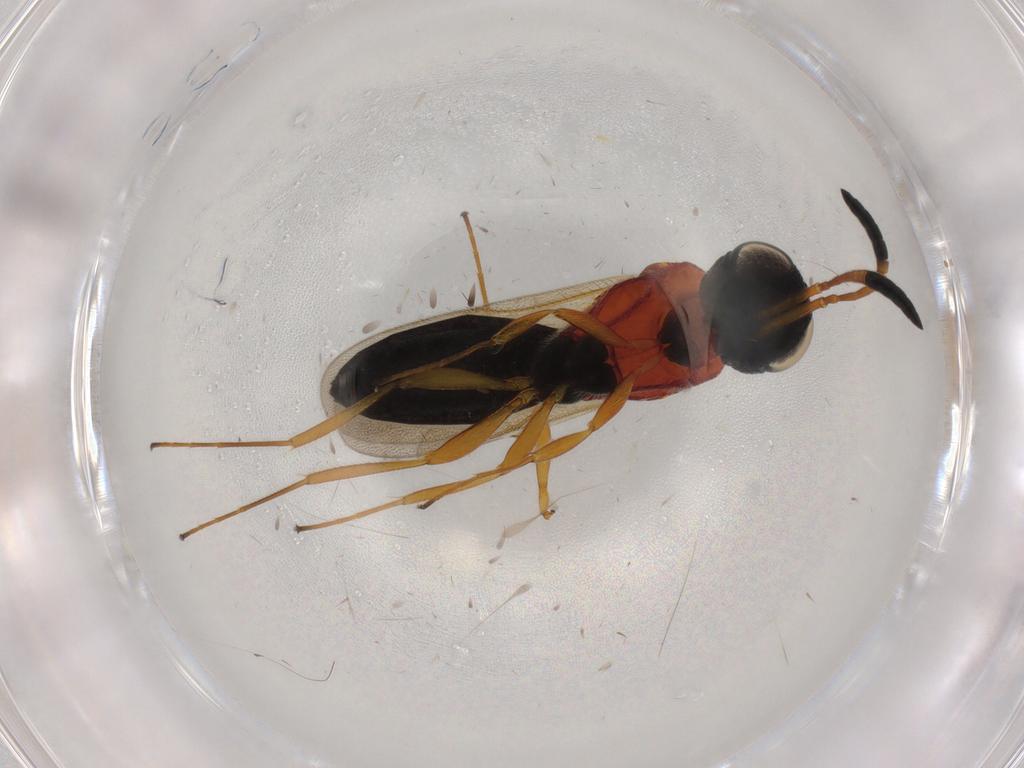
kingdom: Animalia
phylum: Arthropoda
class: Insecta
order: Hymenoptera
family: Scelionidae
